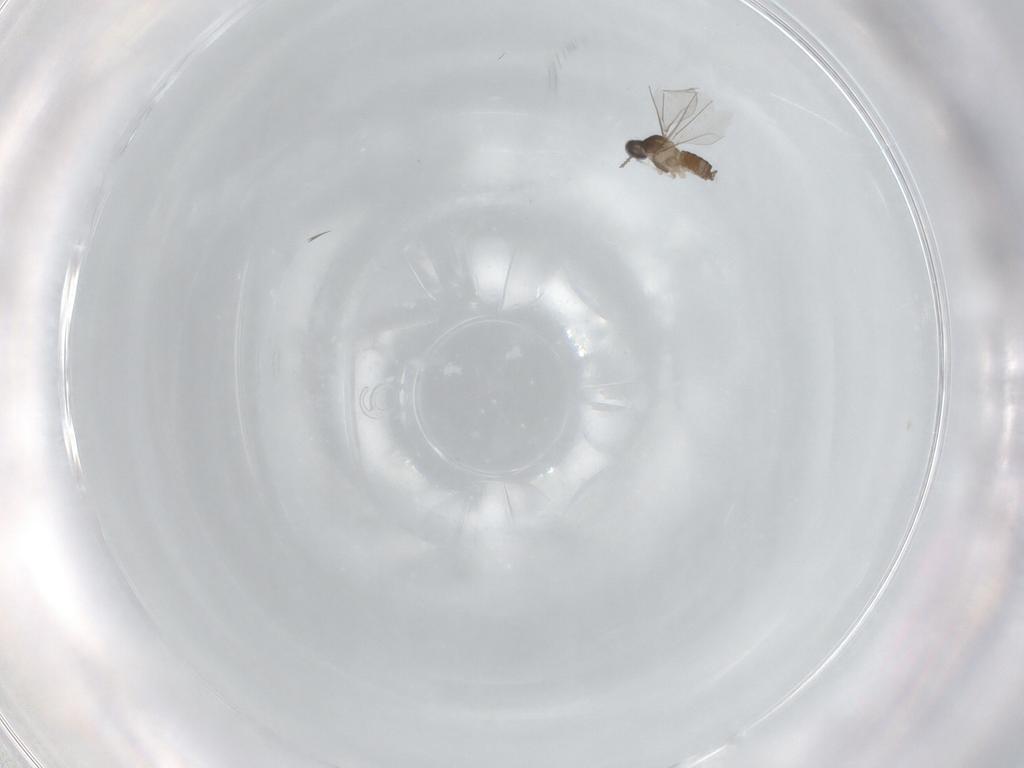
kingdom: Animalia
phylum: Arthropoda
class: Insecta
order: Diptera
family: Cecidomyiidae
